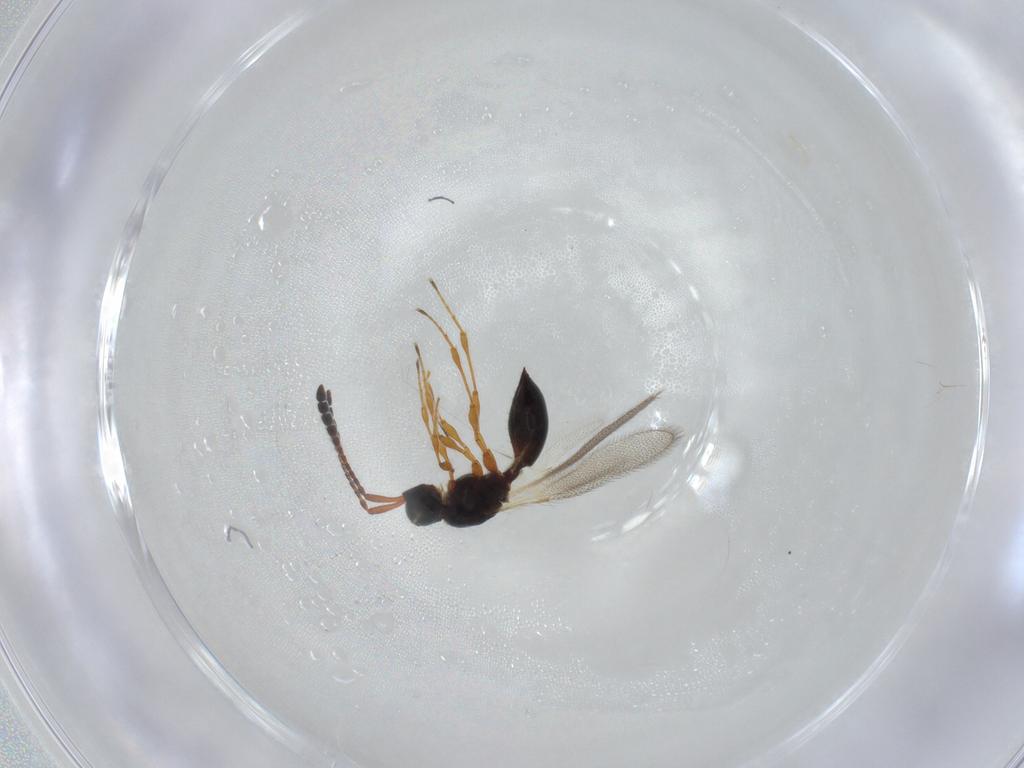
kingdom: Animalia
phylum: Arthropoda
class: Insecta
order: Hymenoptera
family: Diapriidae
